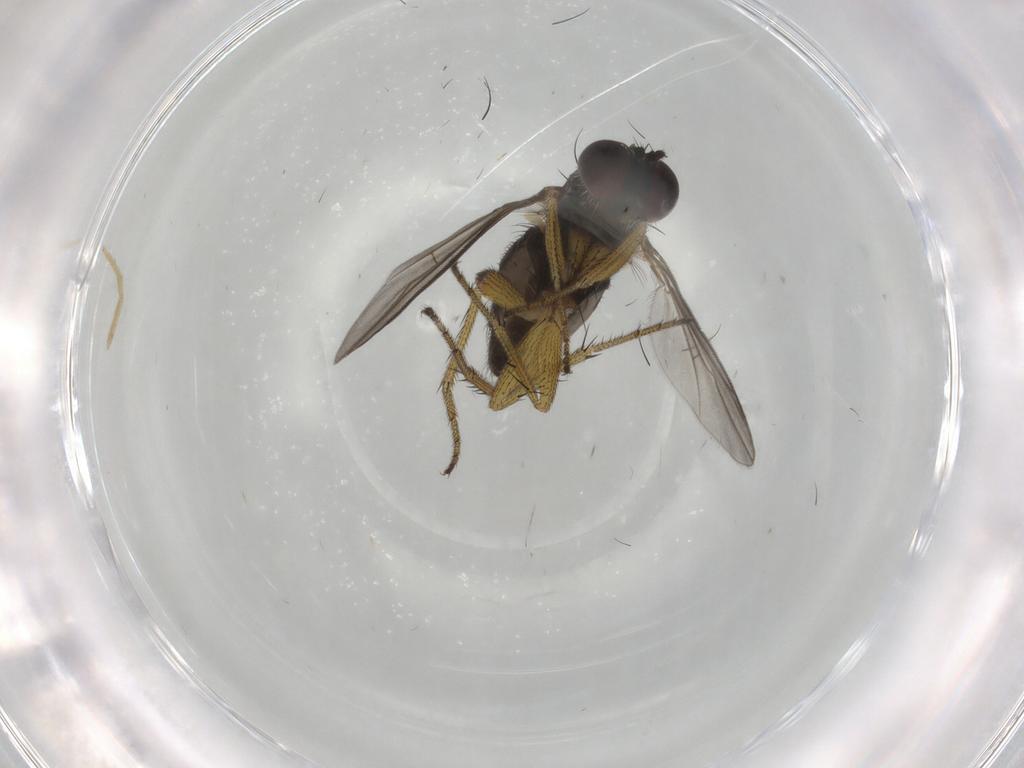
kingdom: Animalia
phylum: Arthropoda
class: Insecta
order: Diptera
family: Dolichopodidae
